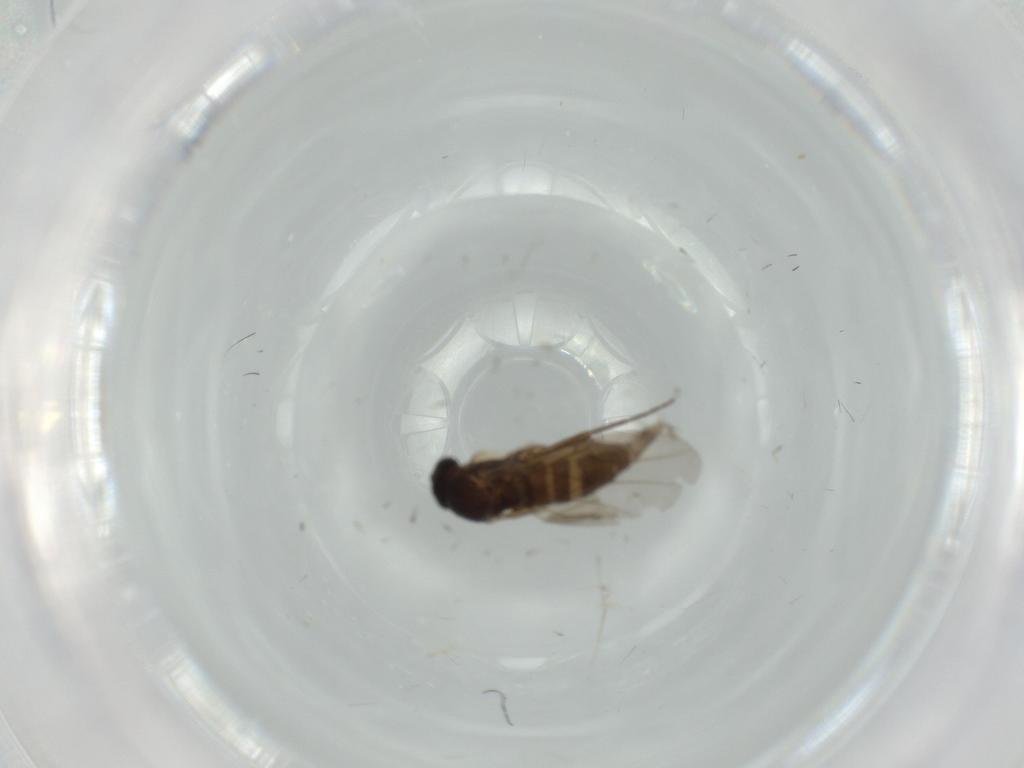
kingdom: Animalia
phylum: Arthropoda
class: Insecta
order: Diptera
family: Phoridae
